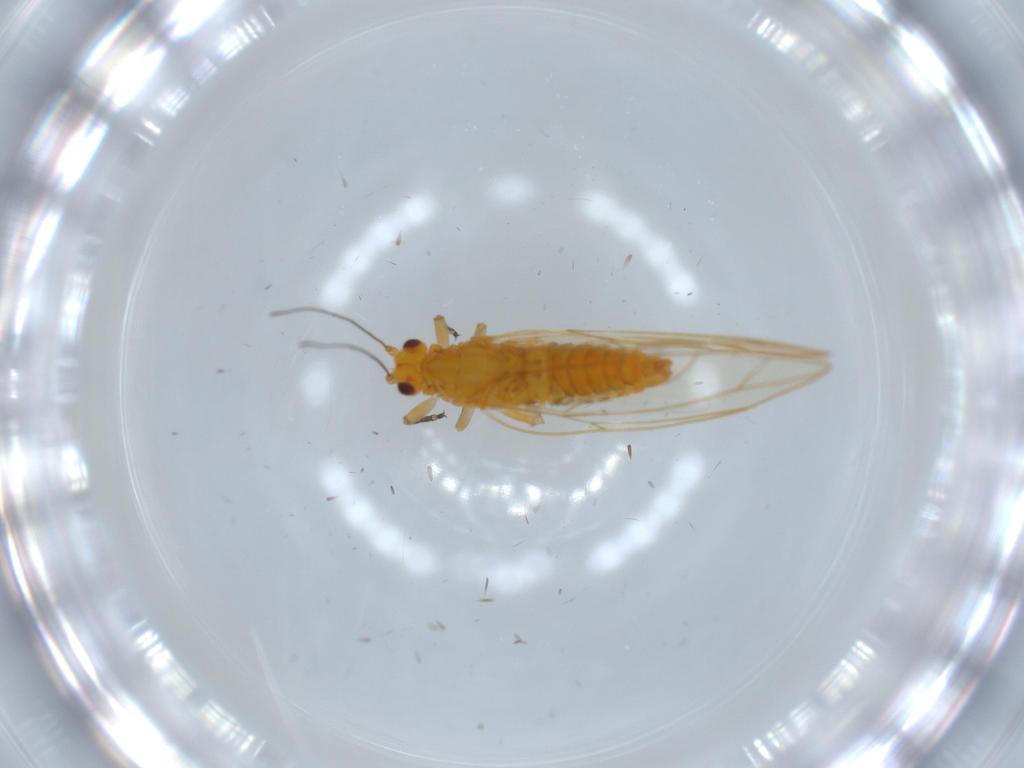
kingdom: Animalia
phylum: Arthropoda
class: Insecta
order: Hemiptera
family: Triozidae
